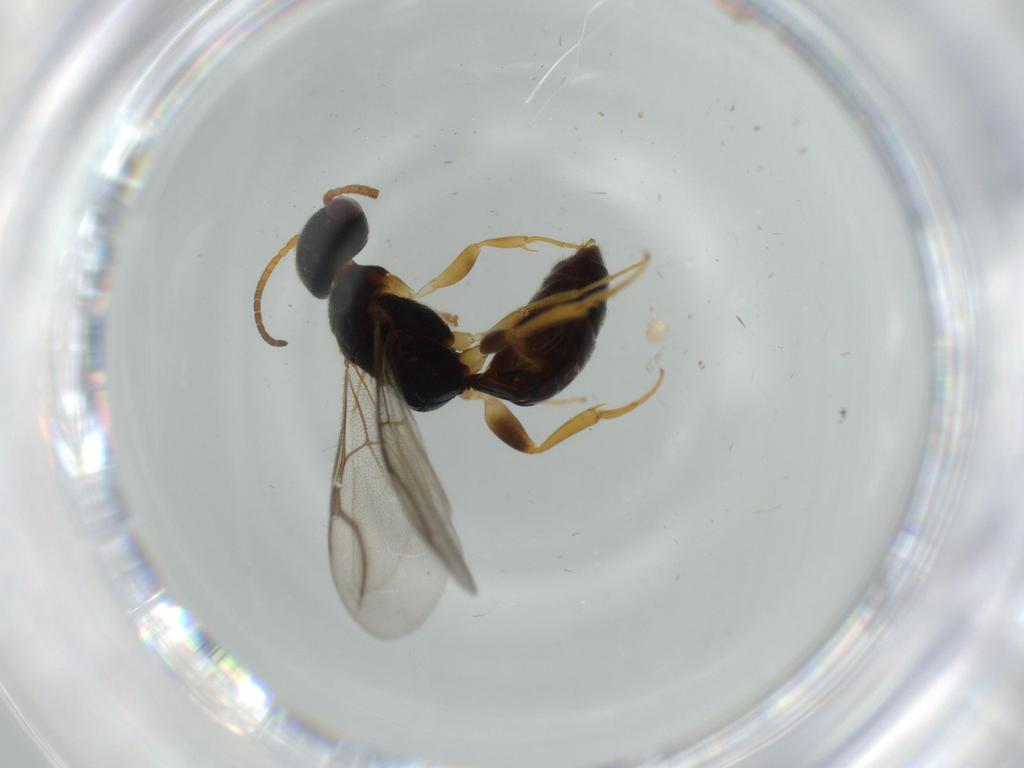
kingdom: Animalia
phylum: Arthropoda
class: Insecta
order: Hymenoptera
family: Bethylidae
